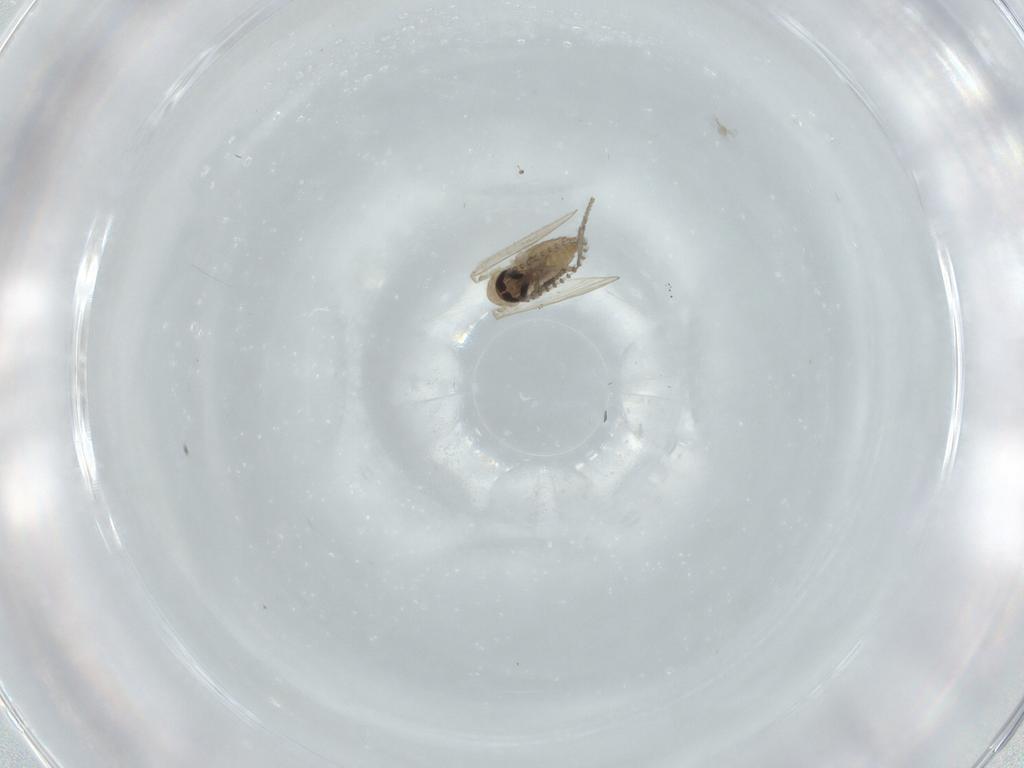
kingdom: Animalia
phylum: Arthropoda
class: Insecta
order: Diptera
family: Psychodidae
